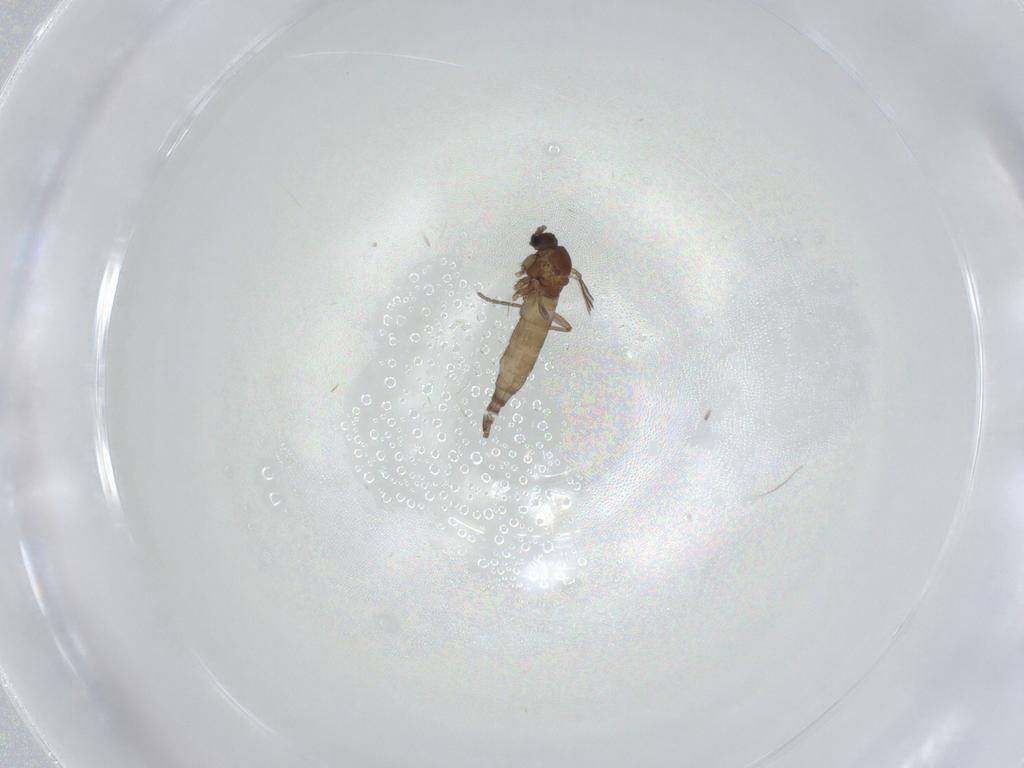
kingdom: Animalia
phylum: Arthropoda
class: Insecta
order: Diptera
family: Sciaridae
